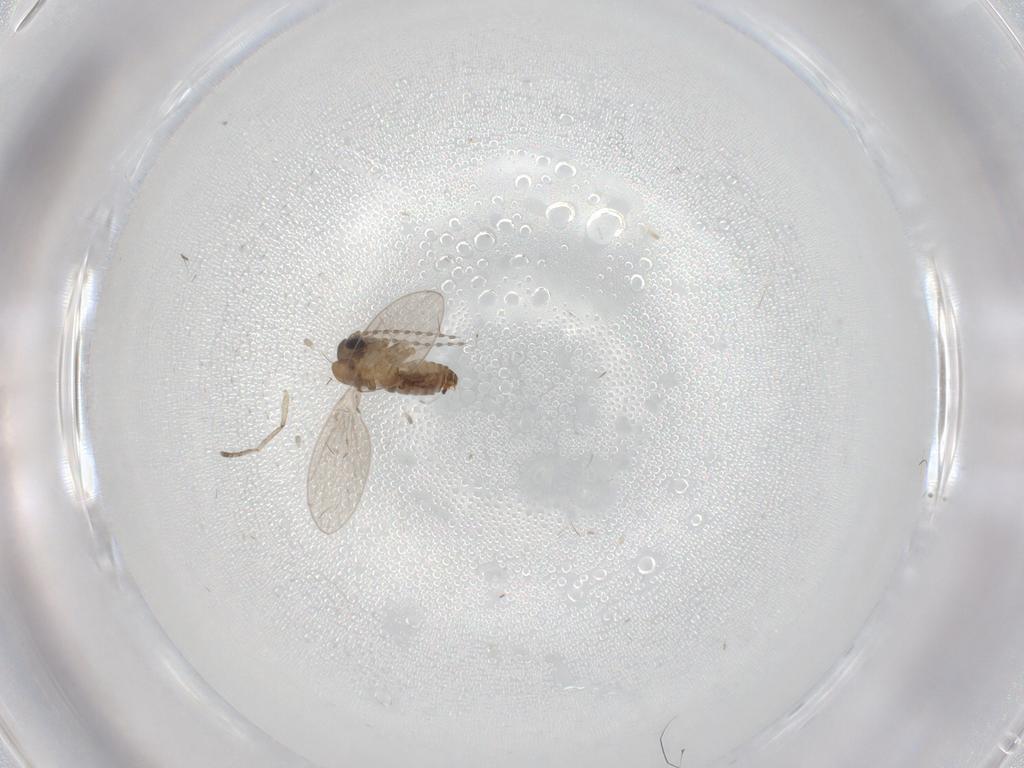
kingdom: Animalia
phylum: Arthropoda
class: Insecta
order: Diptera
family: Psychodidae
